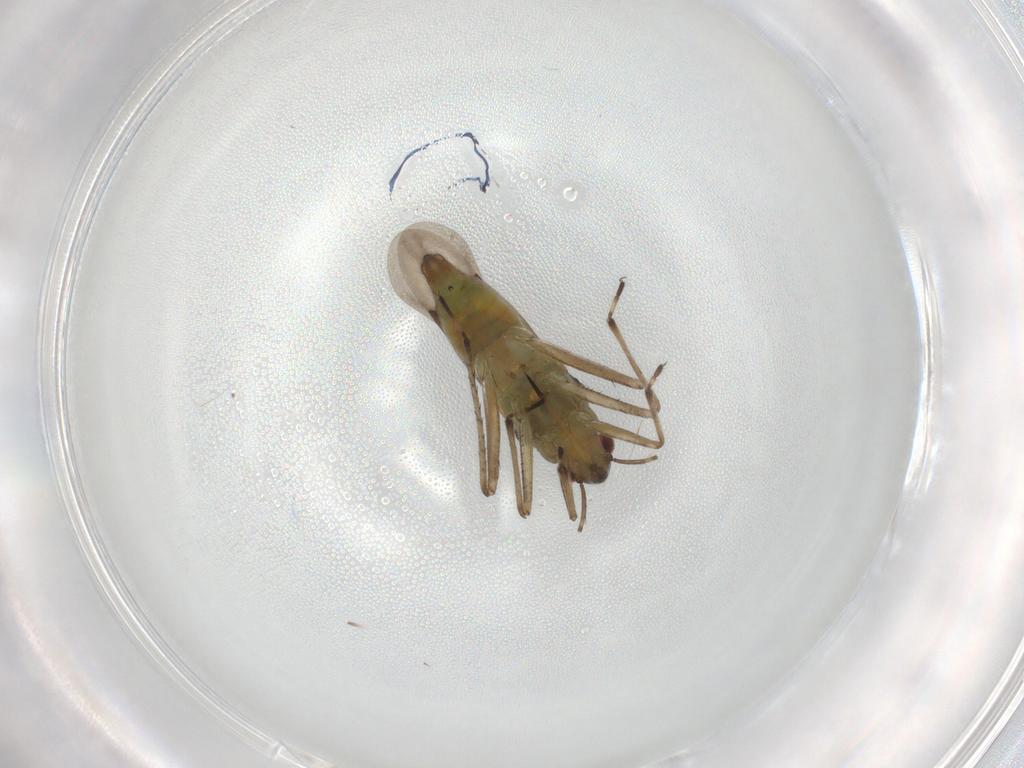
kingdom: Animalia
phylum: Arthropoda
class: Insecta
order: Hemiptera
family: Mesoveliidae
